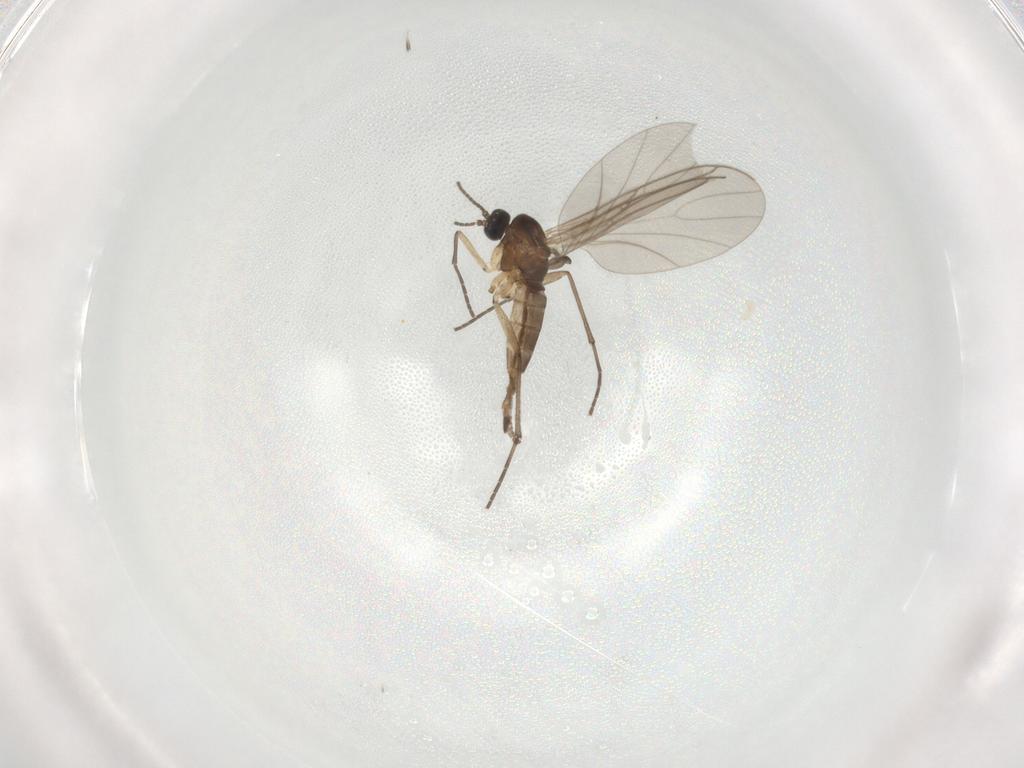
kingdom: Animalia
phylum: Arthropoda
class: Insecta
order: Diptera
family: Sciaridae
